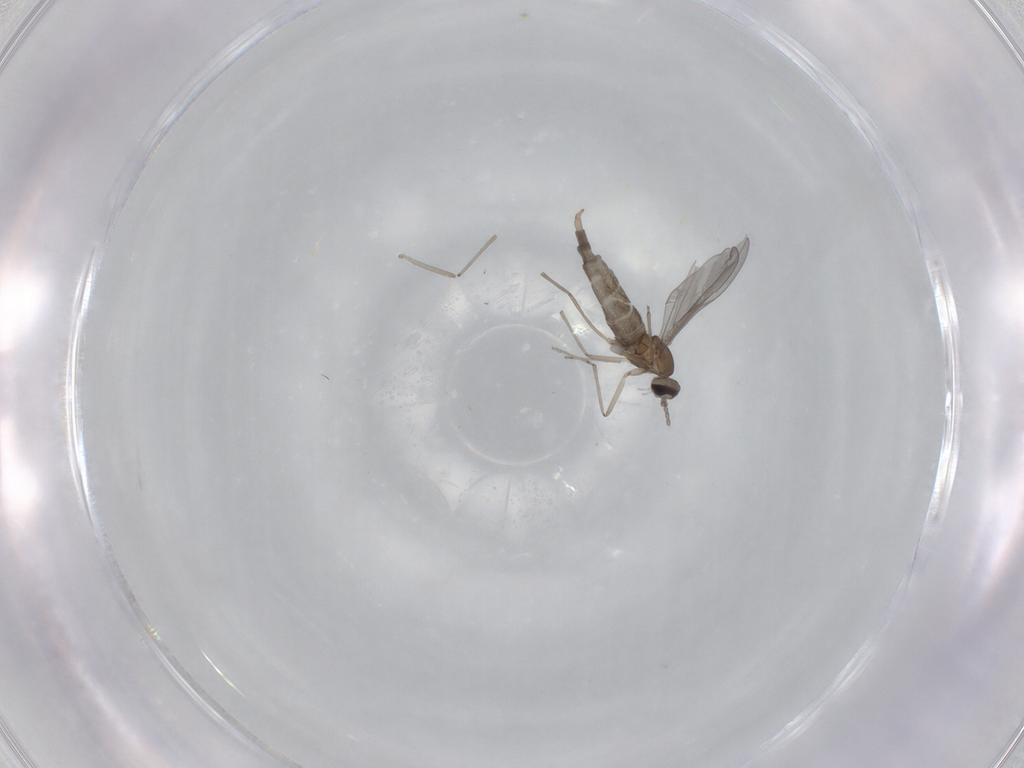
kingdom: Animalia
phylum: Arthropoda
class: Insecta
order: Diptera
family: Cecidomyiidae
